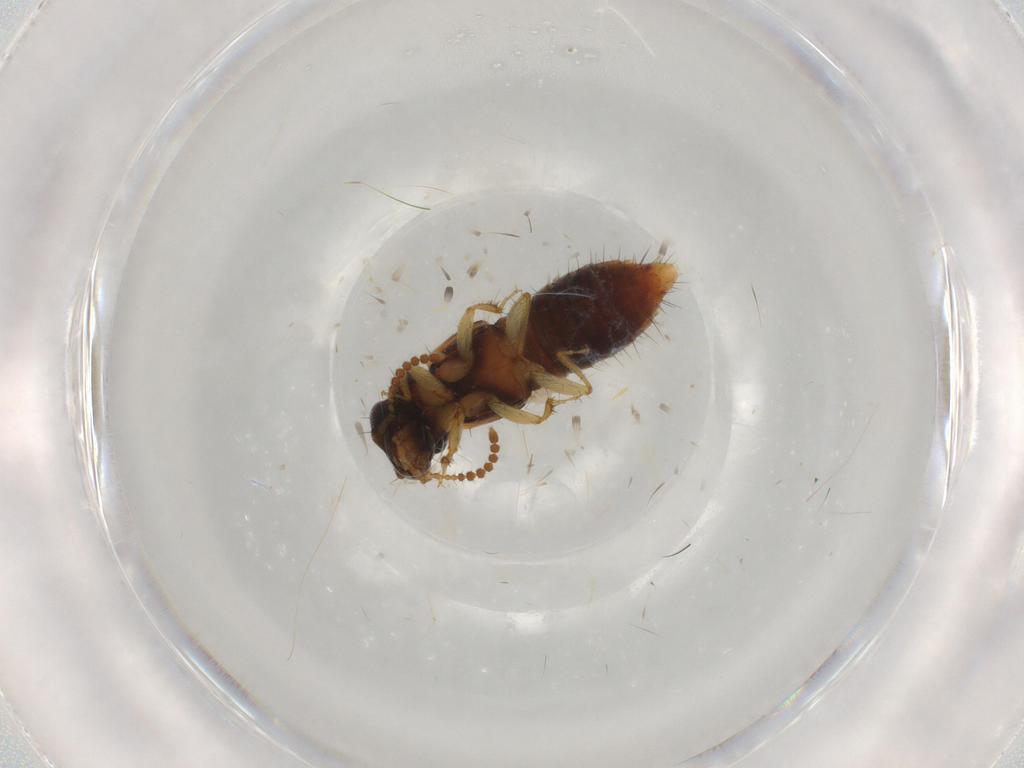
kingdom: Animalia
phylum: Arthropoda
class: Insecta
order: Coleoptera
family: Staphylinidae
